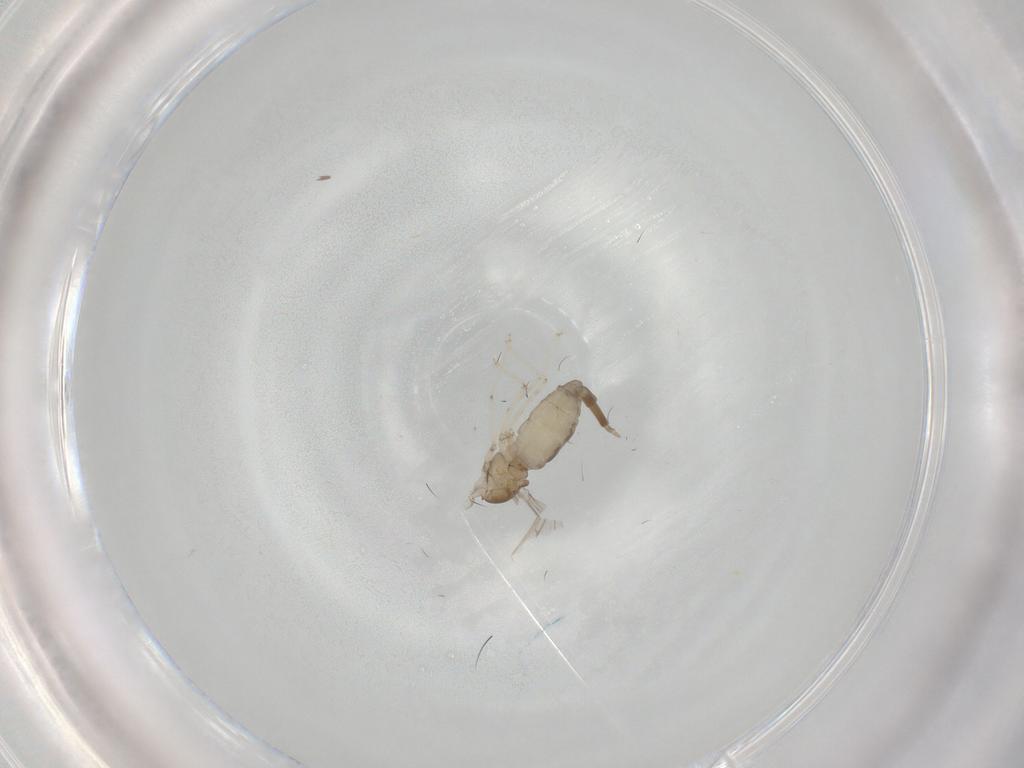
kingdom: Animalia
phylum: Arthropoda
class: Insecta
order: Diptera
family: Cecidomyiidae
